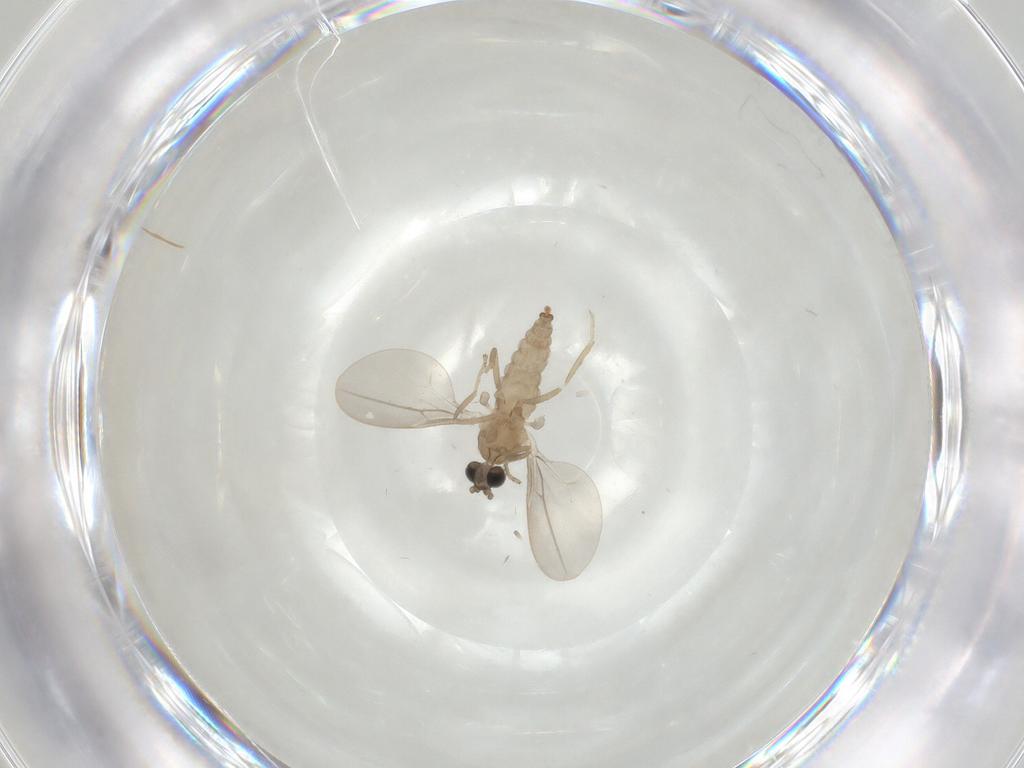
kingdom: Animalia
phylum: Arthropoda
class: Insecta
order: Diptera
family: Cecidomyiidae
